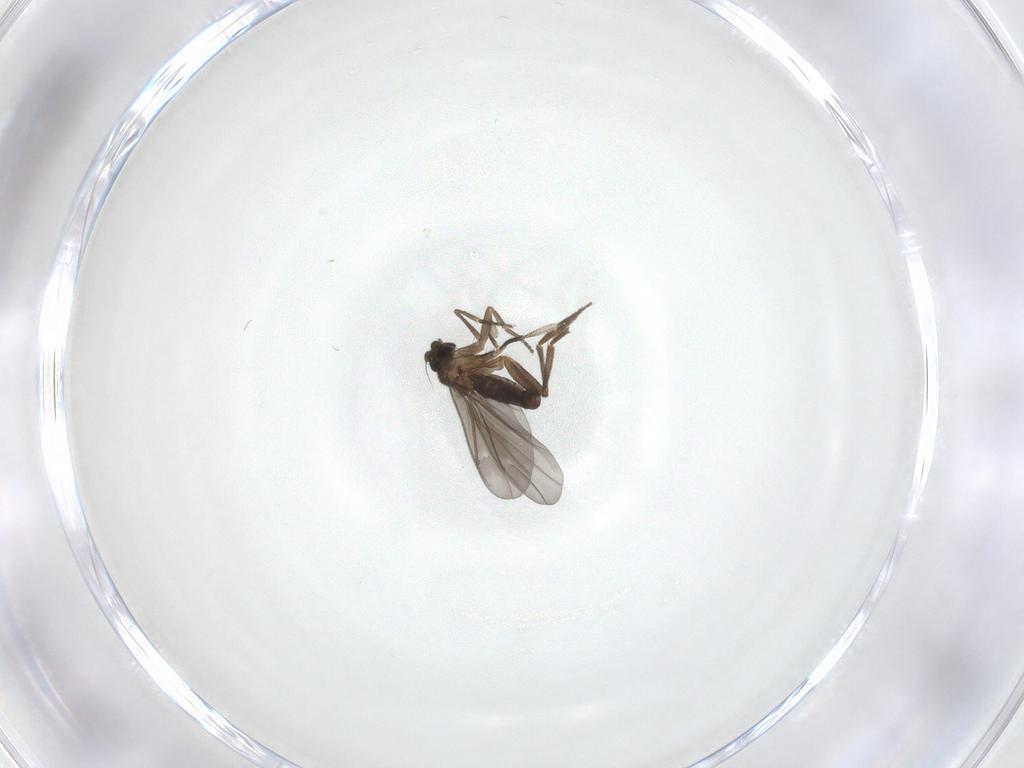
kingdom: Animalia
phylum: Arthropoda
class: Insecta
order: Diptera
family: Phoridae
